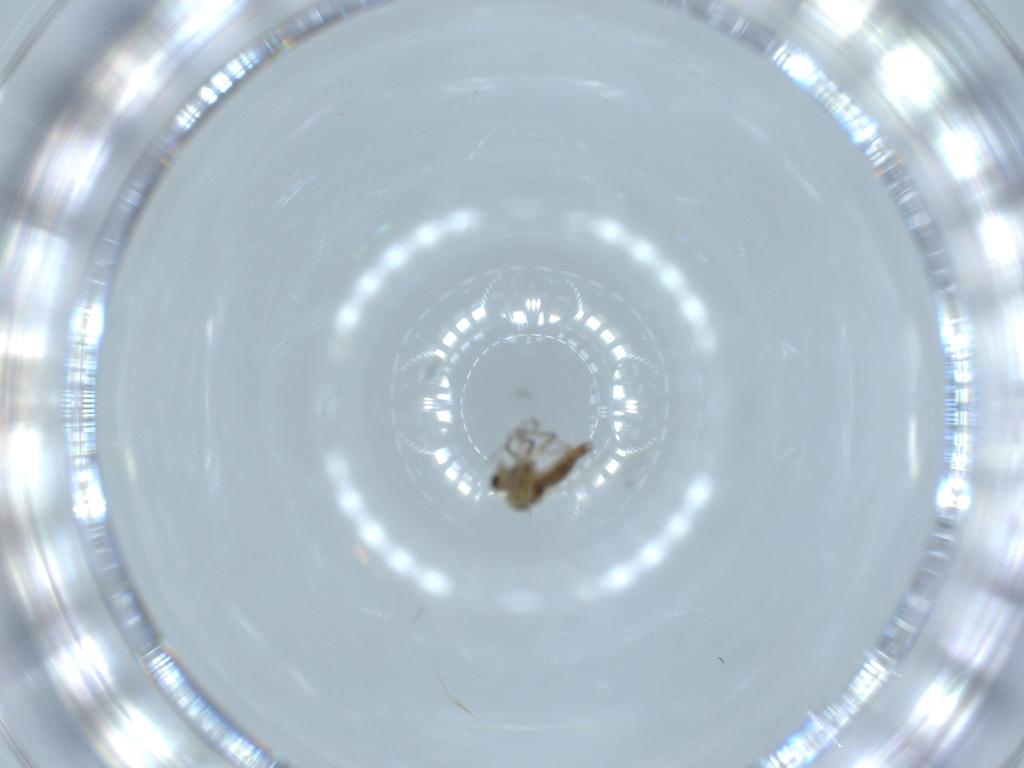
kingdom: Animalia
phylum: Arthropoda
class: Insecta
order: Diptera
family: Chironomidae
